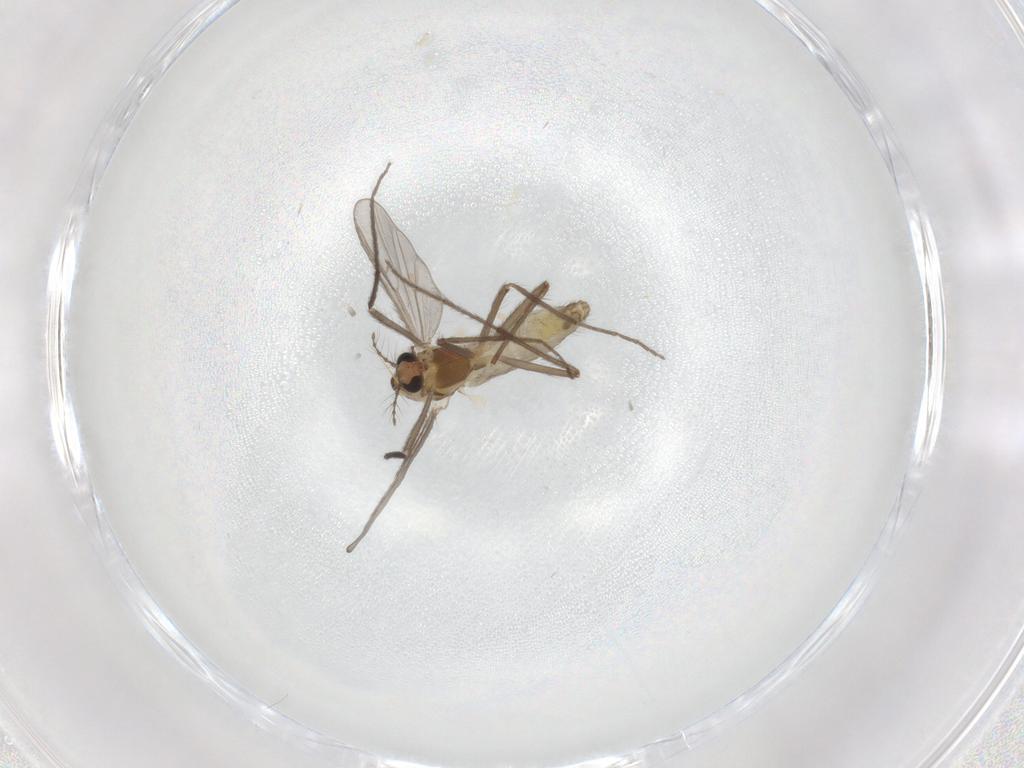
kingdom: Animalia
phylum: Arthropoda
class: Insecta
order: Diptera
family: Chironomidae
